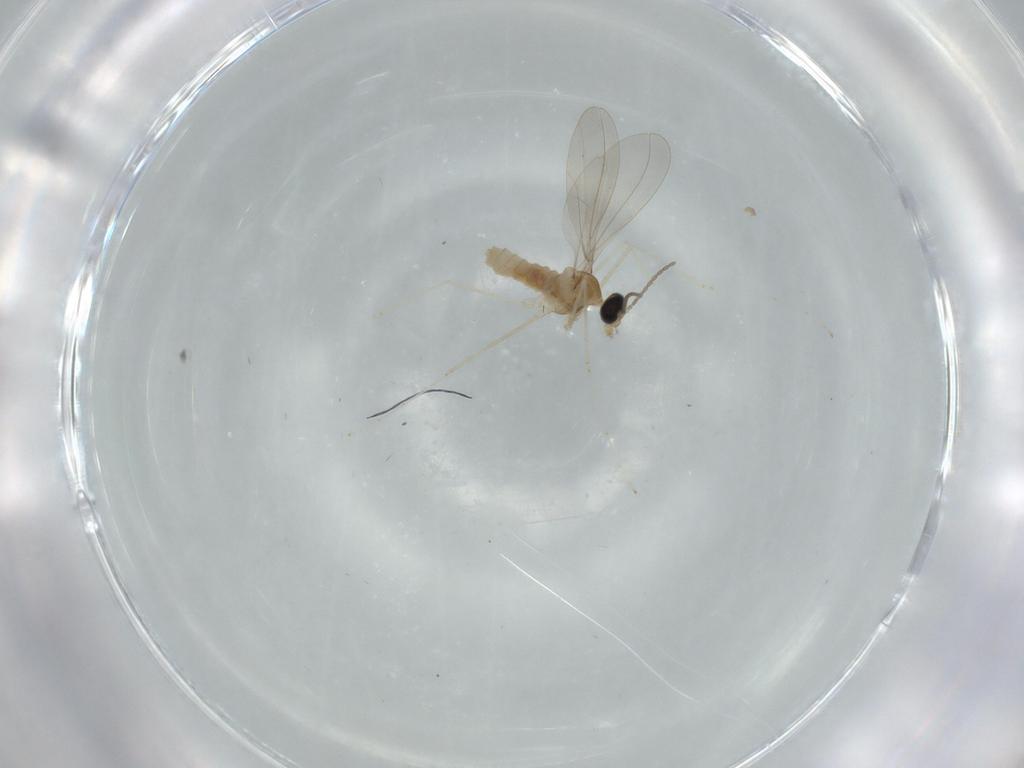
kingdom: Animalia
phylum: Arthropoda
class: Insecta
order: Diptera
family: Cecidomyiidae
